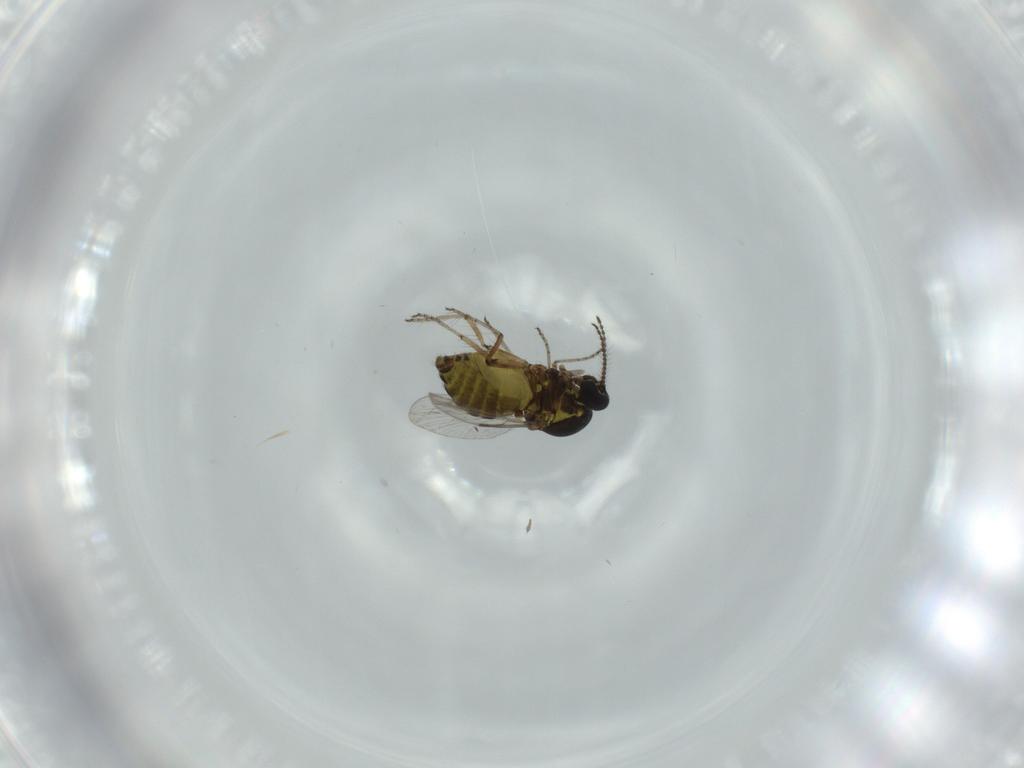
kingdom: Animalia
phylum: Arthropoda
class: Insecta
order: Diptera
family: Ceratopogonidae
